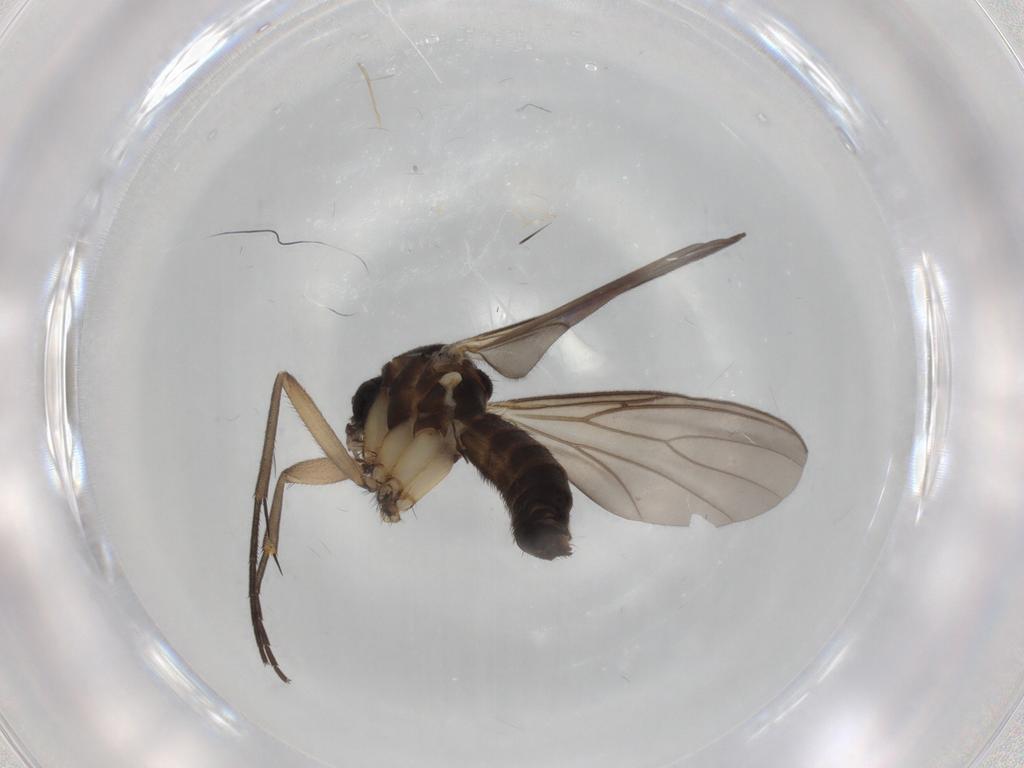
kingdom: Animalia
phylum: Arthropoda
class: Insecta
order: Diptera
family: Mycetophilidae
